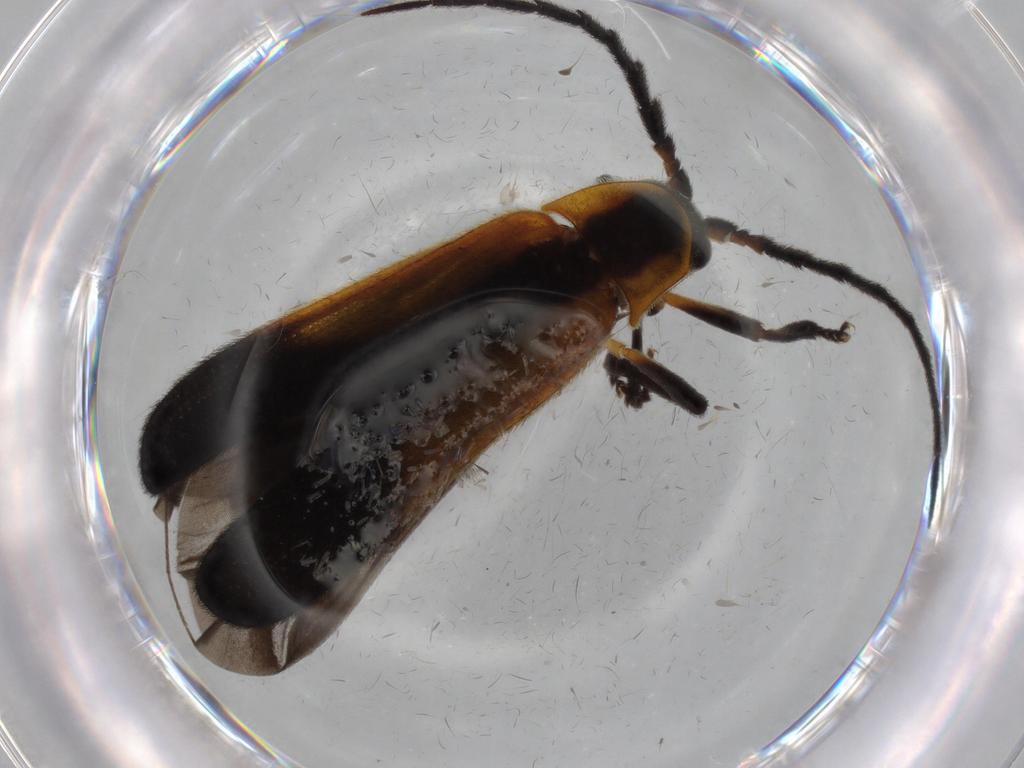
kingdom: Animalia
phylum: Arthropoda
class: Insecta
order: Coleoptera
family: Lycidae
